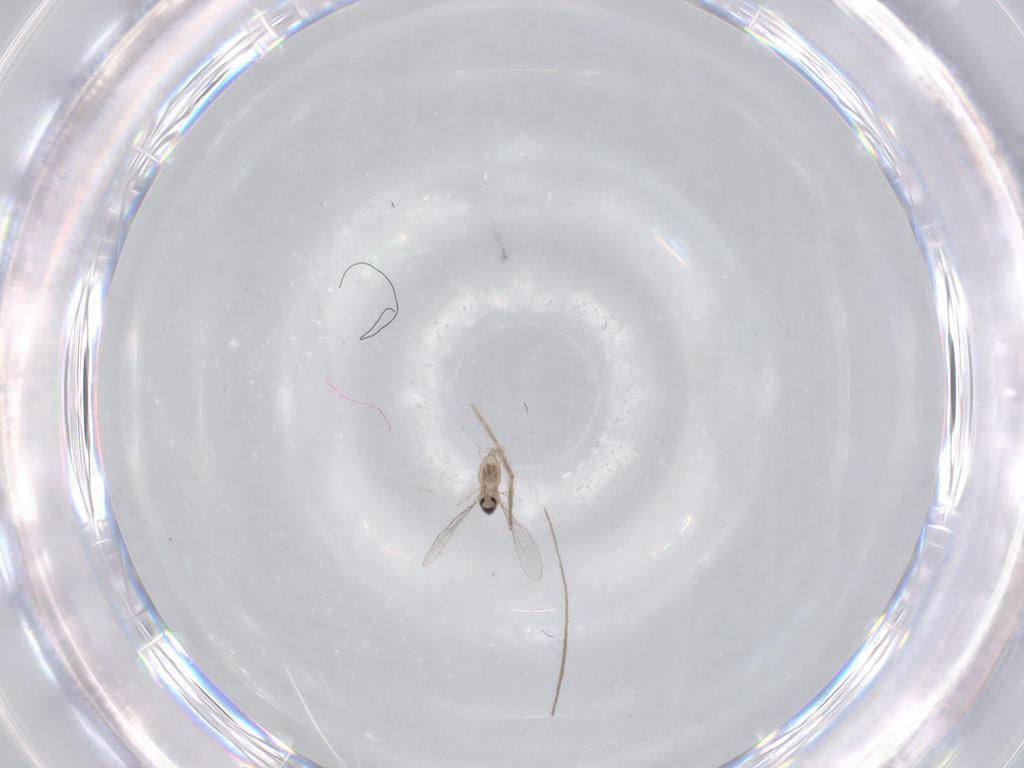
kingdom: Animalia
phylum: Arthropoda
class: Insecta
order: Diptera
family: Cecidomyiidae
